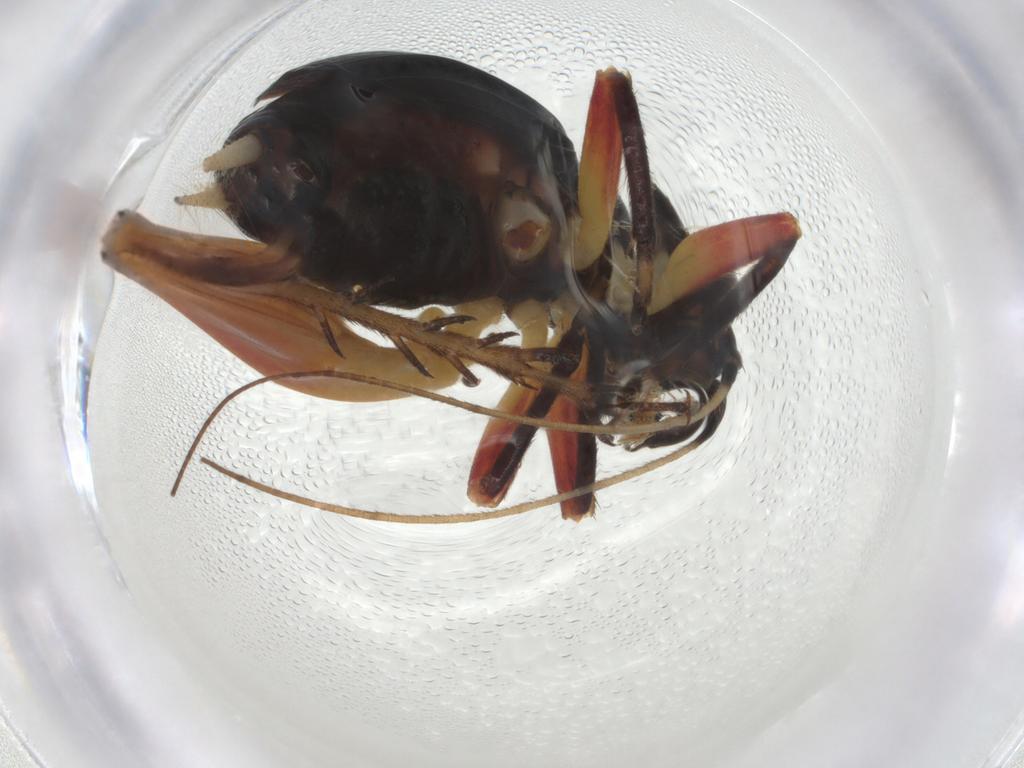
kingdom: Animalia
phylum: Arthropoda
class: Insecta
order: Orthoptera
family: Trigonidiidae
